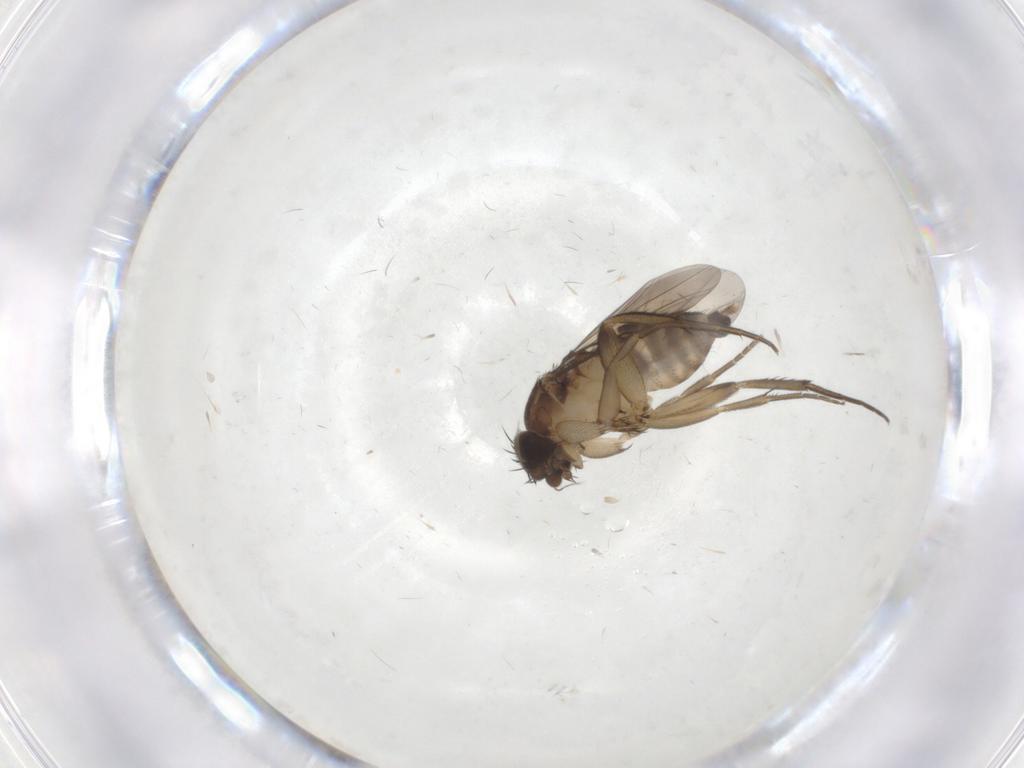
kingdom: Animalia
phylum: Arthropoda
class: Insecta
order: Diptera
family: Phoridae
